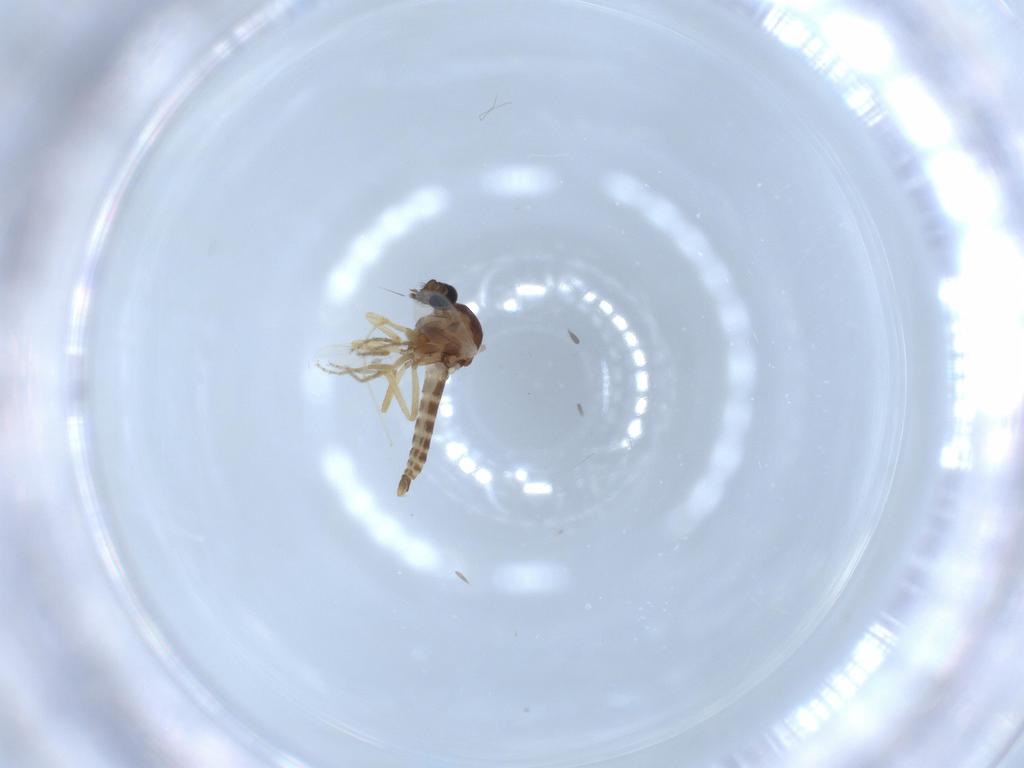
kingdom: Animalia
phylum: Arthropoda
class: Insecta
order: Diptera
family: Ceratopogonidae
